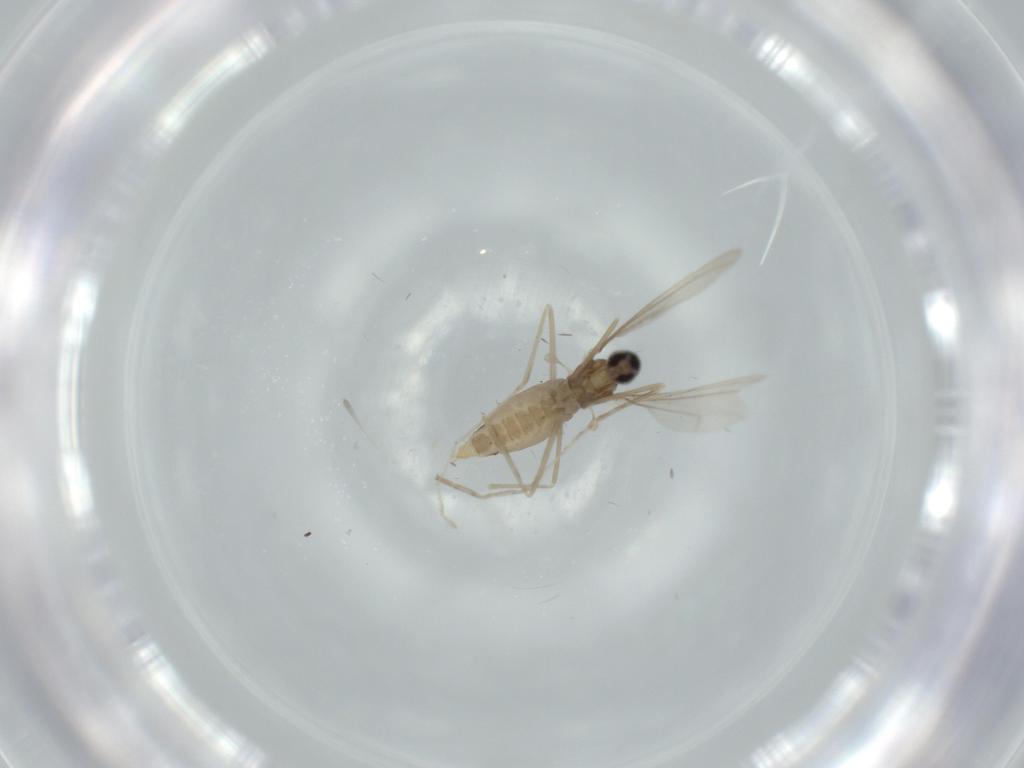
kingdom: Animalia
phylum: Arthropoda
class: Insecta
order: Diptera
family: Cecidomyiidae
